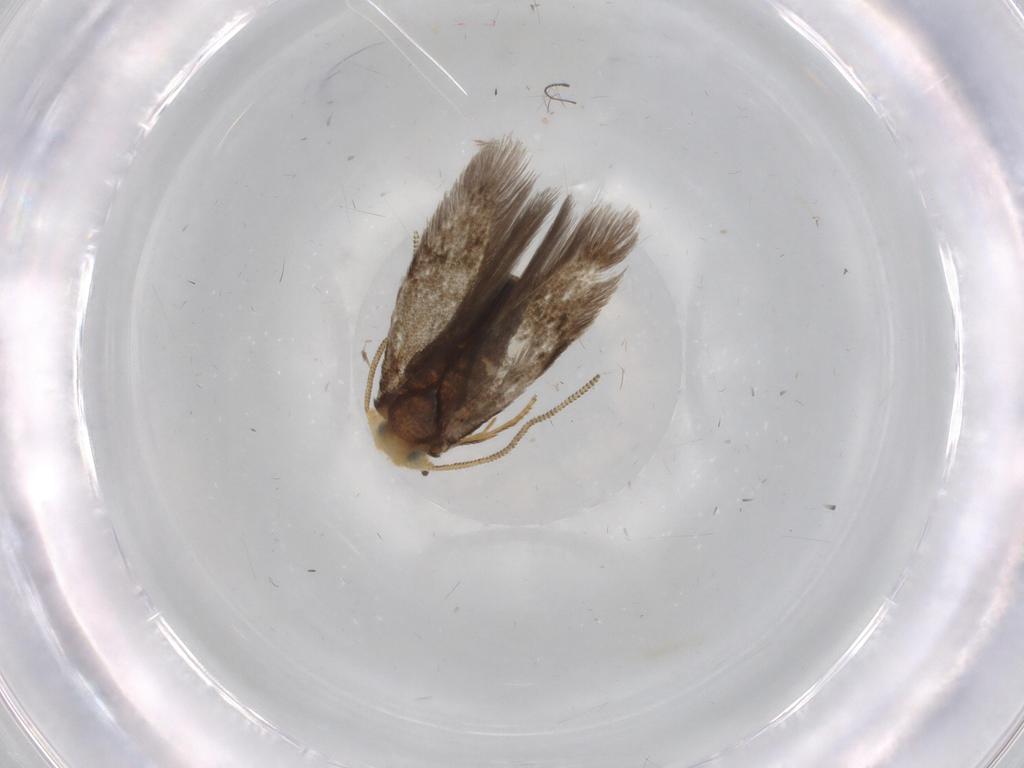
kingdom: Animalia
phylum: Arthropoda
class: Insecta
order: Lepidoptera
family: Nepticulidae
